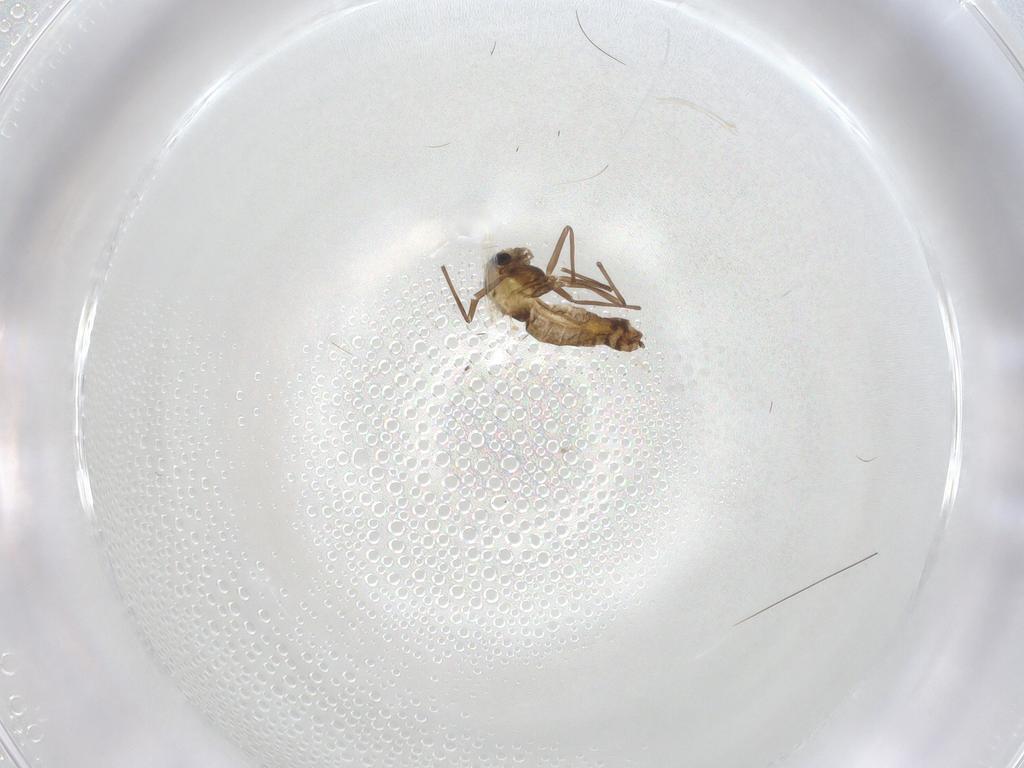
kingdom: Animalia
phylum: Arthropoda
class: Insecta
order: Diptera
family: Chironomidae
